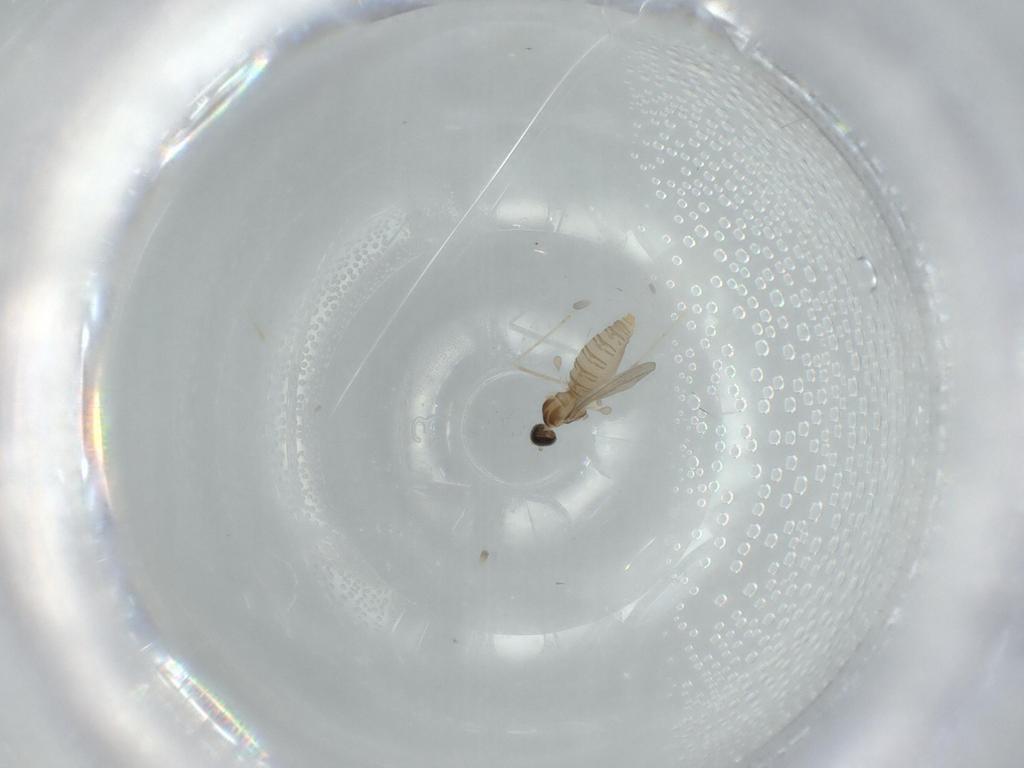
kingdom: Animalia
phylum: Arthropoda
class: Insecta
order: Diptera
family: Cecidomyiidae
